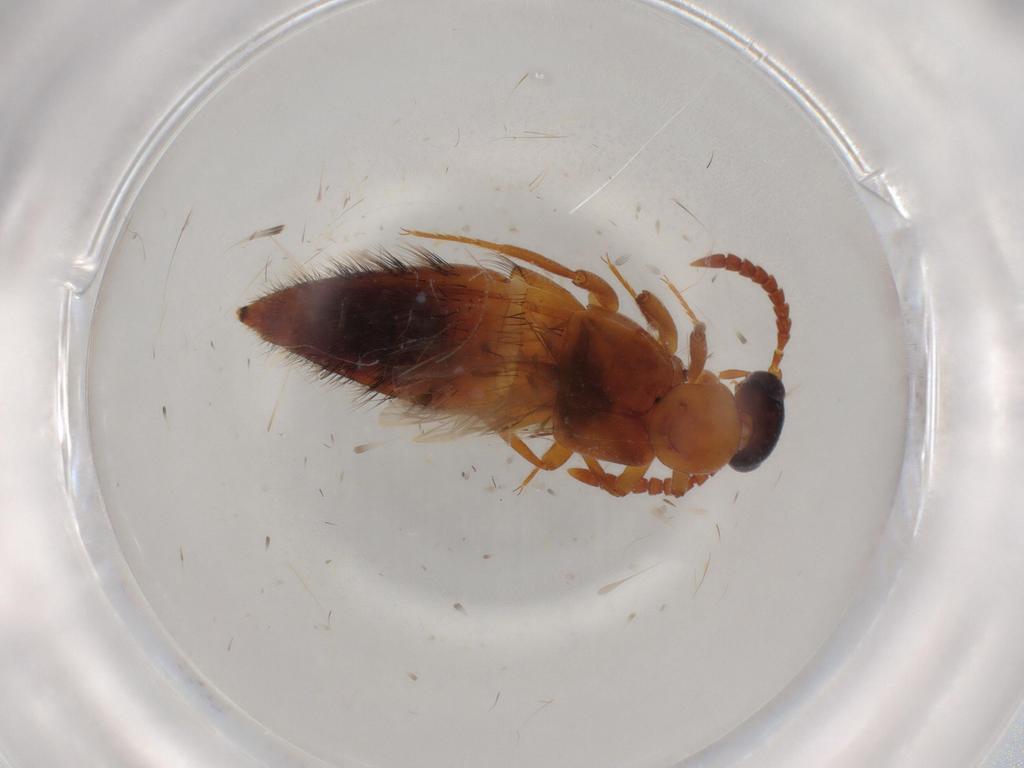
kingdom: Animalia
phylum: Arthropoda
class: Insecta
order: Coleoptera
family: Staphylinidae
